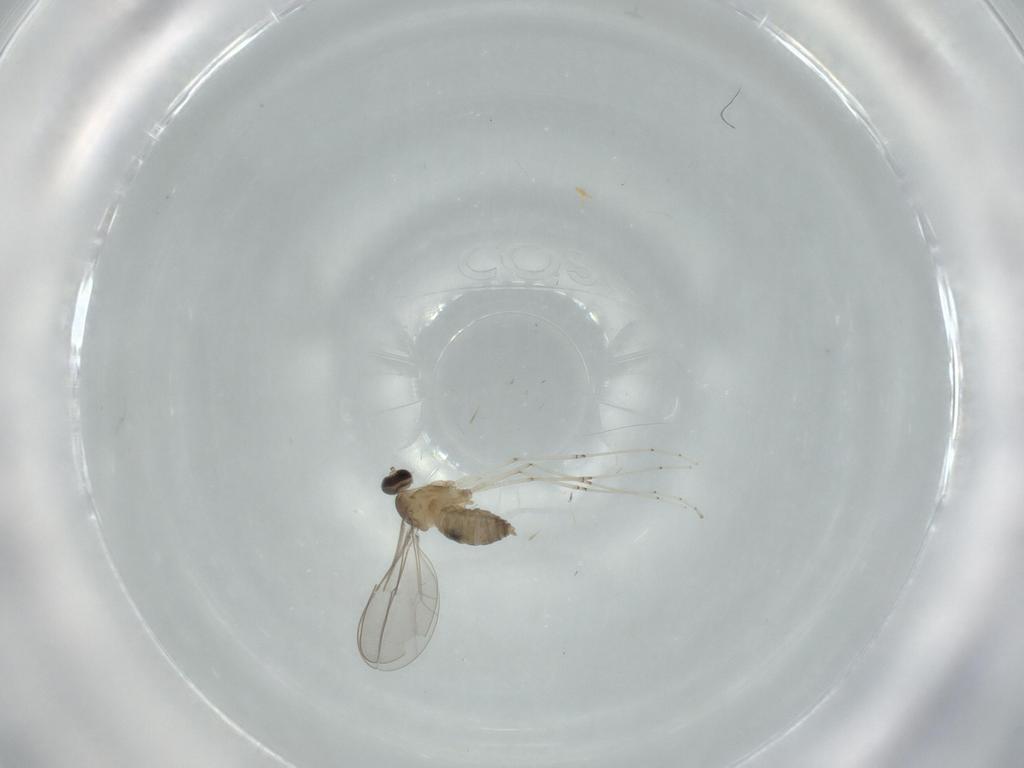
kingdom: Animalia
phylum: Arthropoda
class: Insecta
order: Diptera
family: Cecidomyiidae
